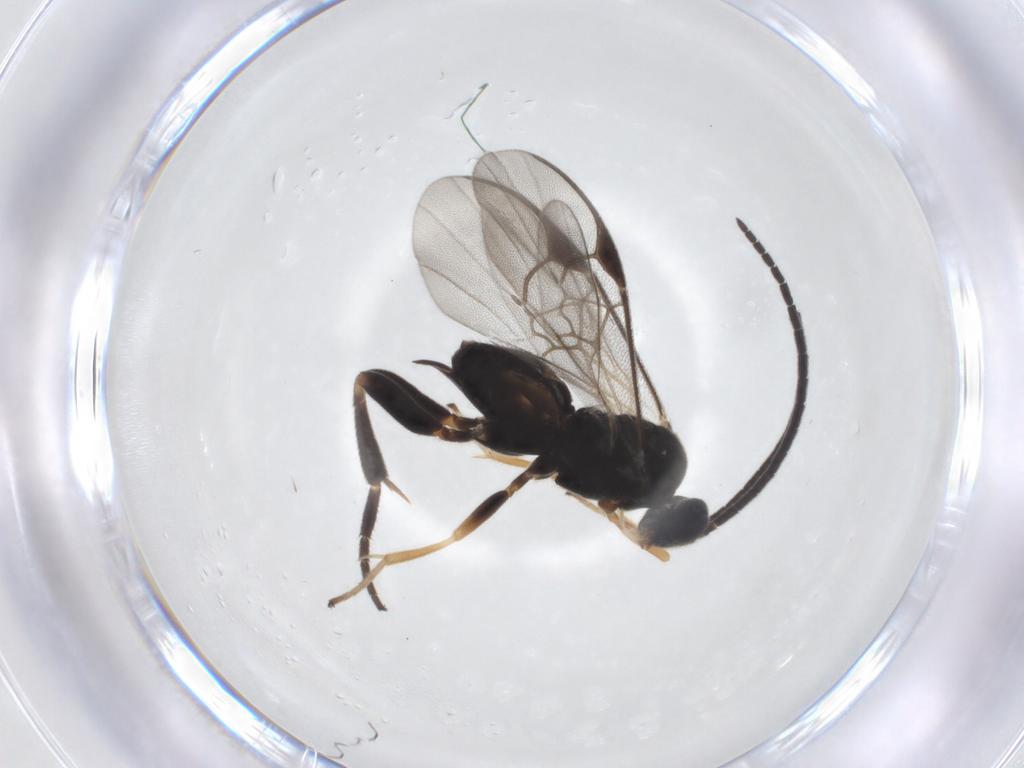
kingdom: Animalia
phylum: Arthropoda
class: Insecta
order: Hymenoptera
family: Braconidae
